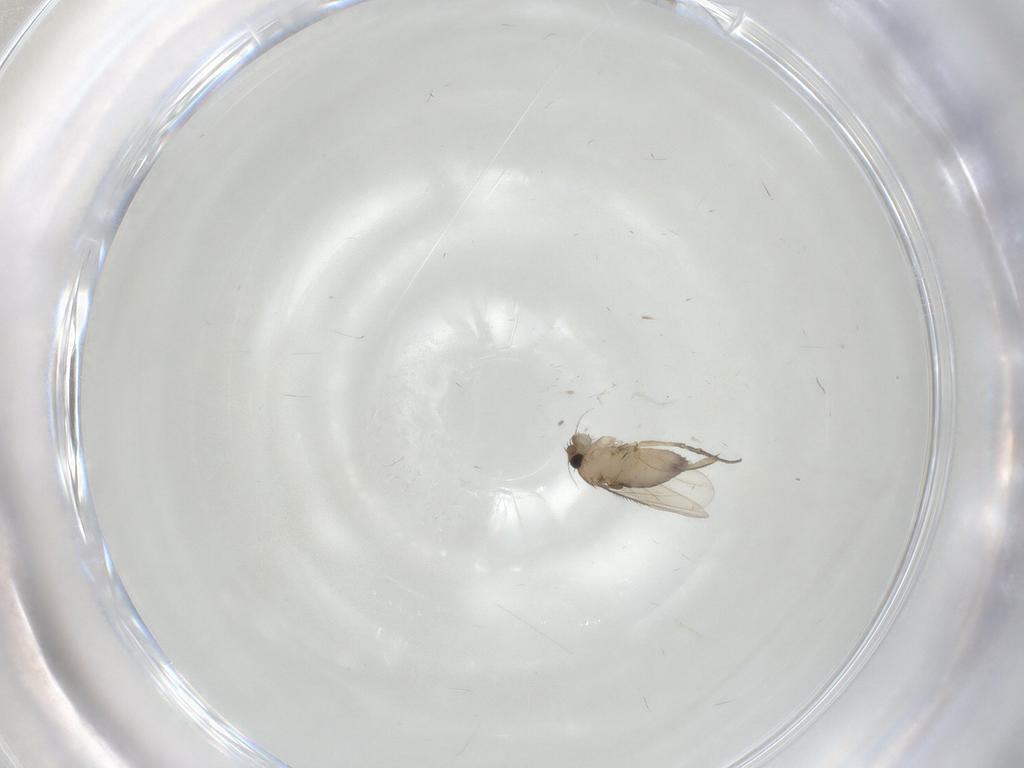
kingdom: Animalia
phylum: Arthropoda
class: Insecta
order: Diptera
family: Phoridae
